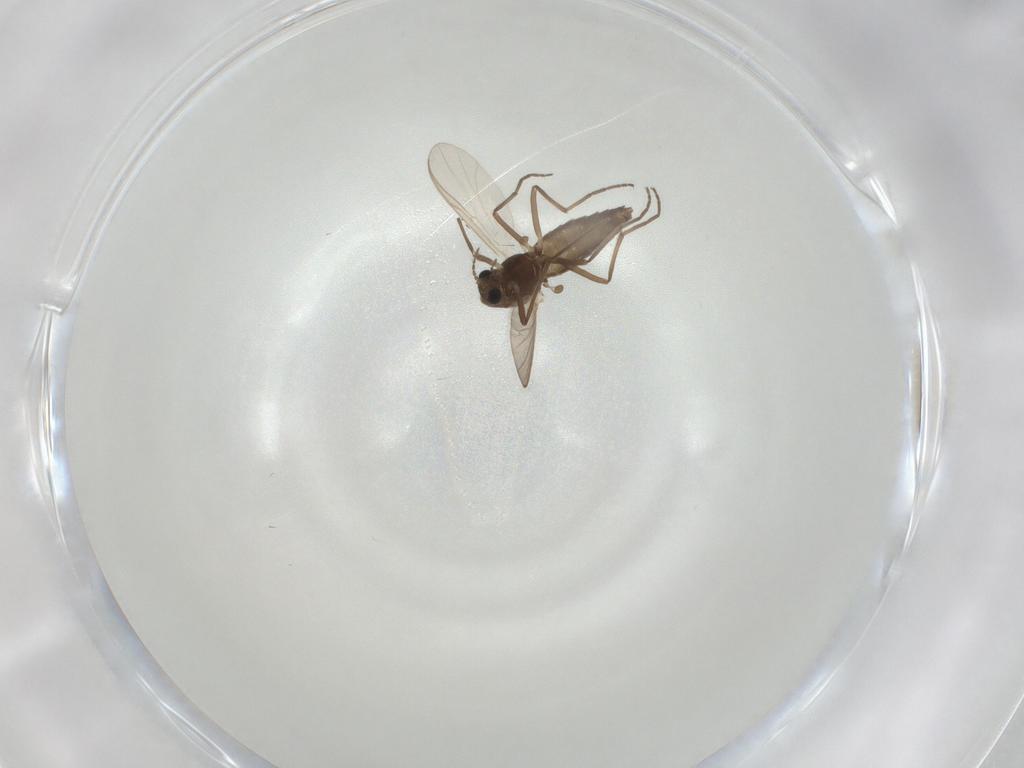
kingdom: Animalia
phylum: Arthropoda
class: Insecta
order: Diptera
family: Chironomidae
